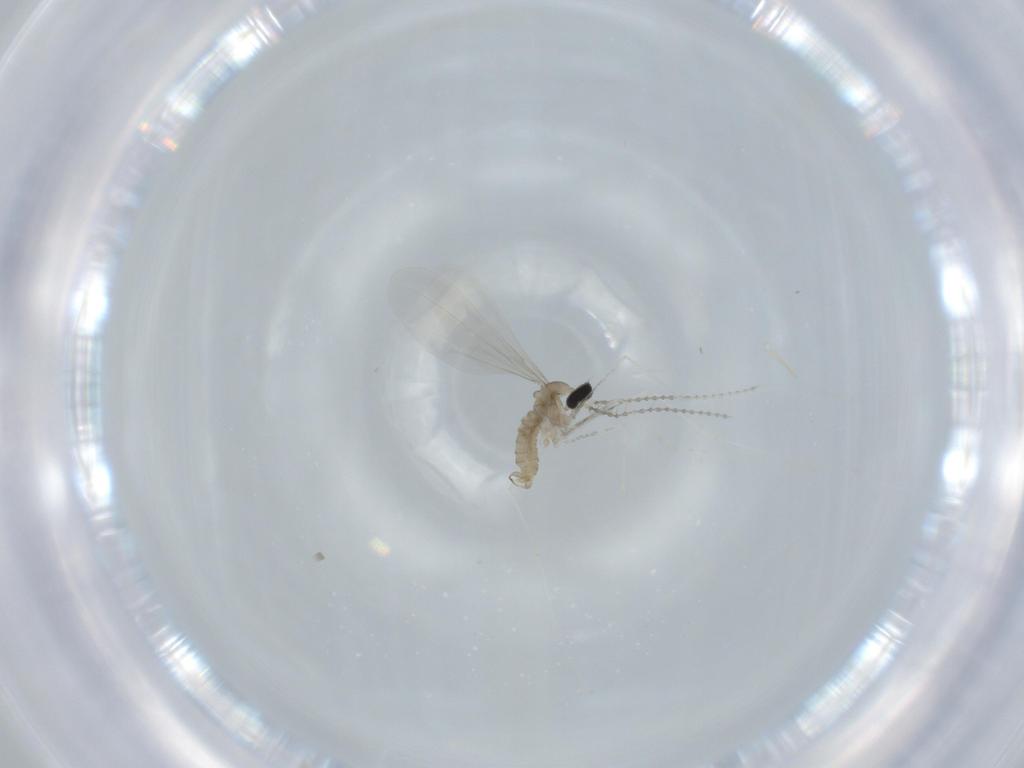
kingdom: Animalia
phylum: Arthropoda
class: Insecta
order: Diptera
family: Cecidomyiidae
